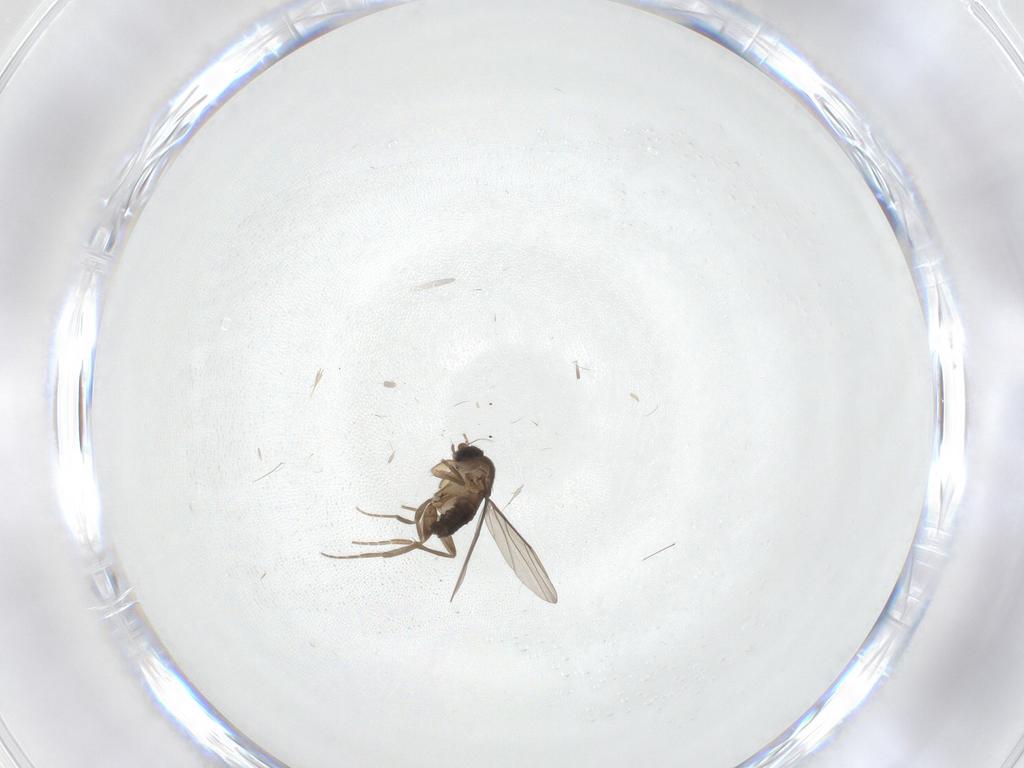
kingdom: Animalia
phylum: Arthropoda
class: Insecta
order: Diptera
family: Phoridae
